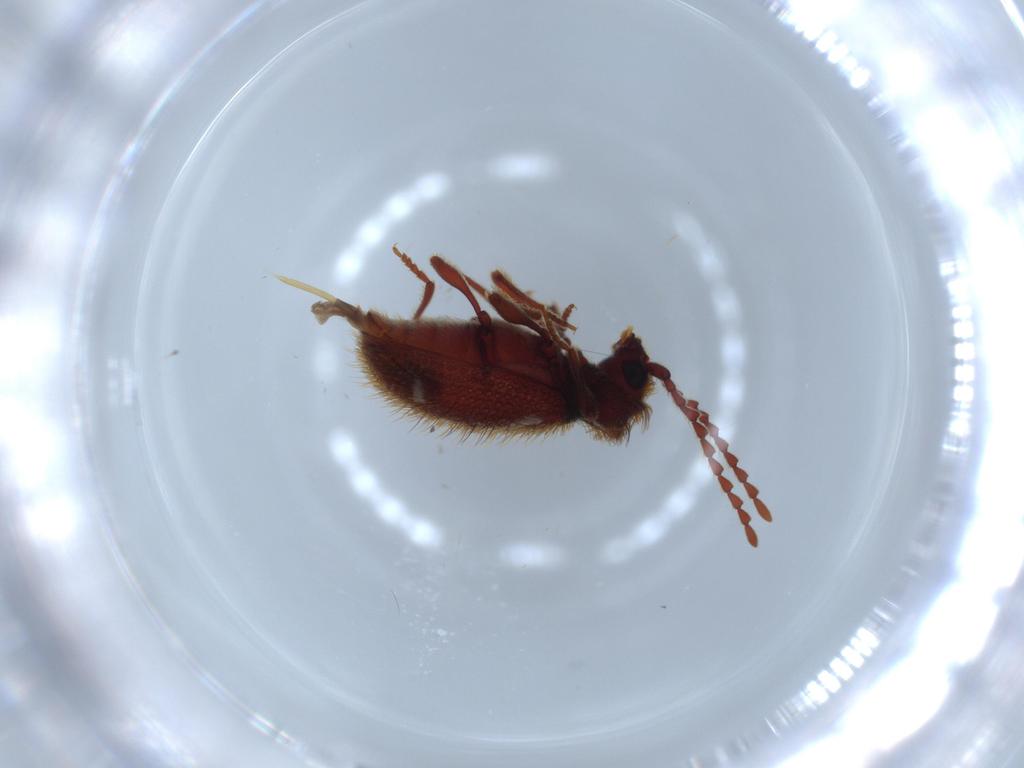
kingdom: Animalia
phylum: Arthropoda
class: Insecta
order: Coleoptera
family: Ptinidae
